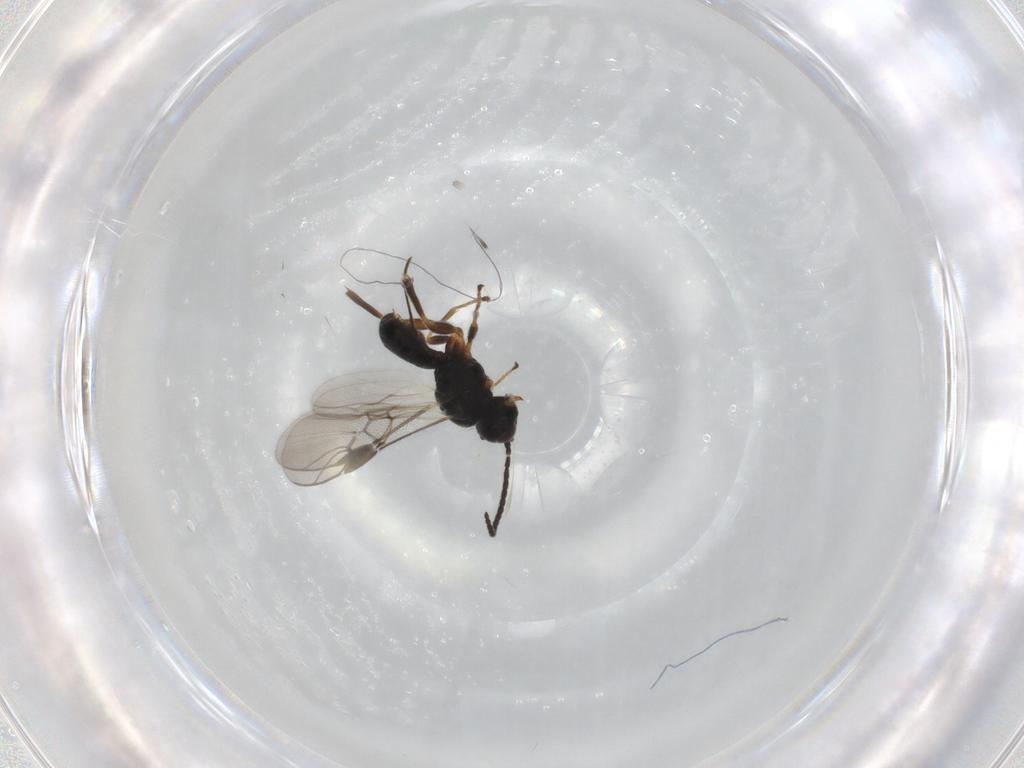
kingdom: Animalia
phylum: Arthropoda
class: Insecta
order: Hymenoptera
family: Braconidae
